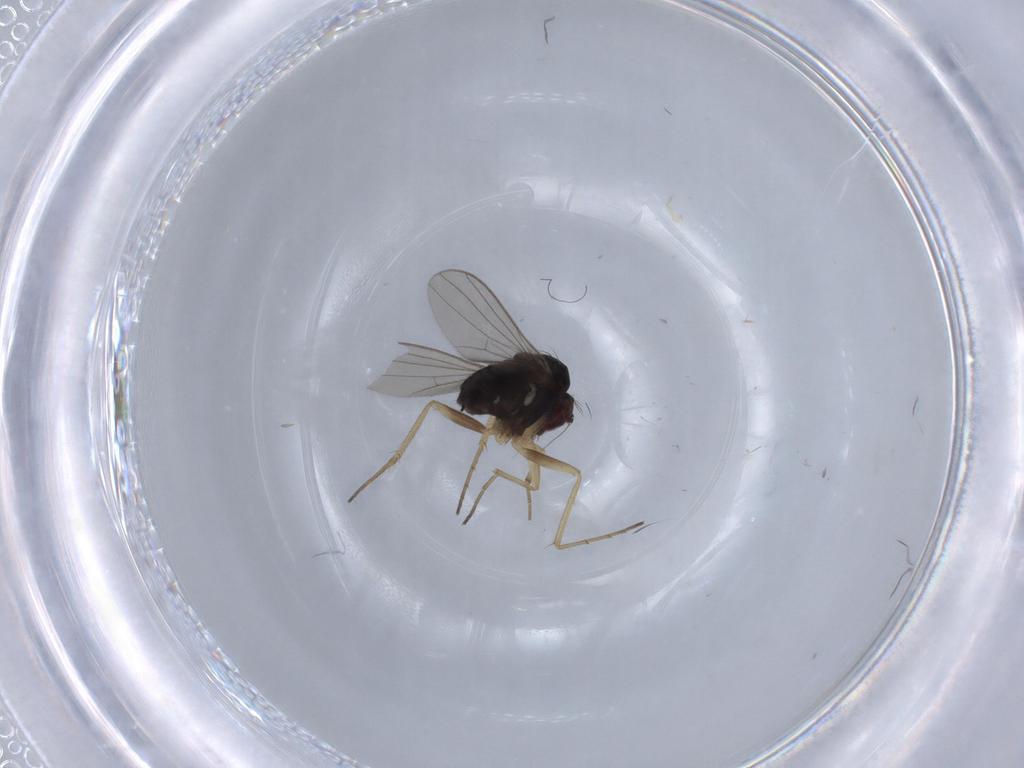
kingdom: Animalia
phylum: Arthropoda
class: Insecta
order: Diptera
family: Dolichopodidae
